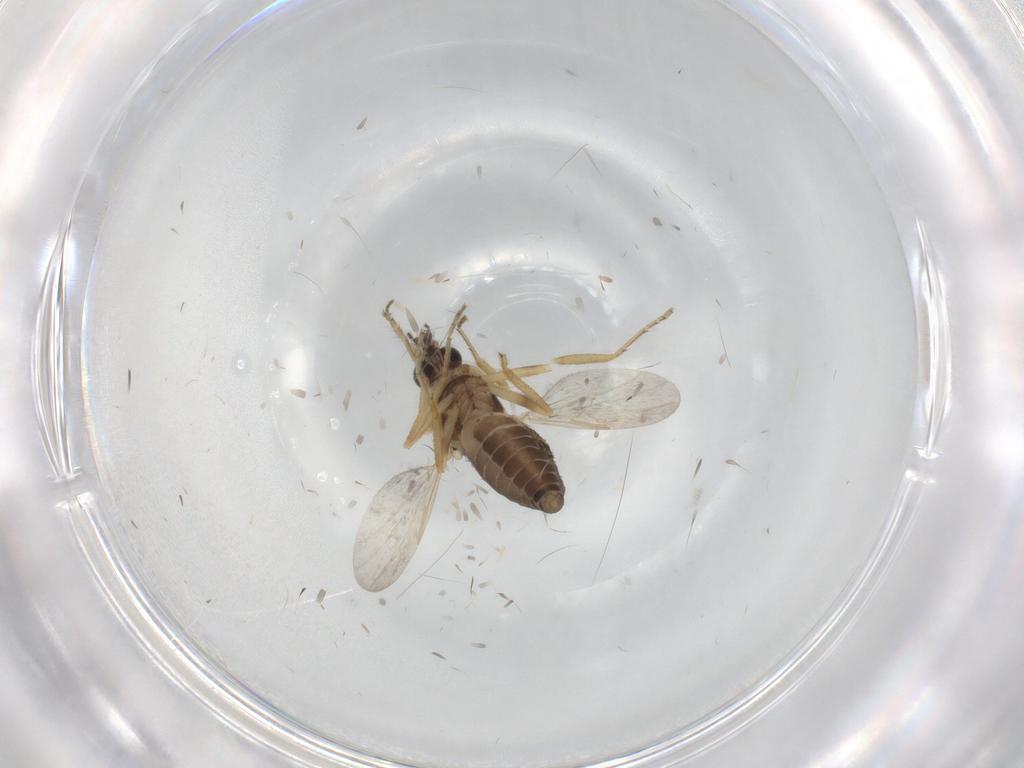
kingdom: Animalia
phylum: Arthropoda
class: Insecta
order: Diptera
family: Ceratopogonidae
